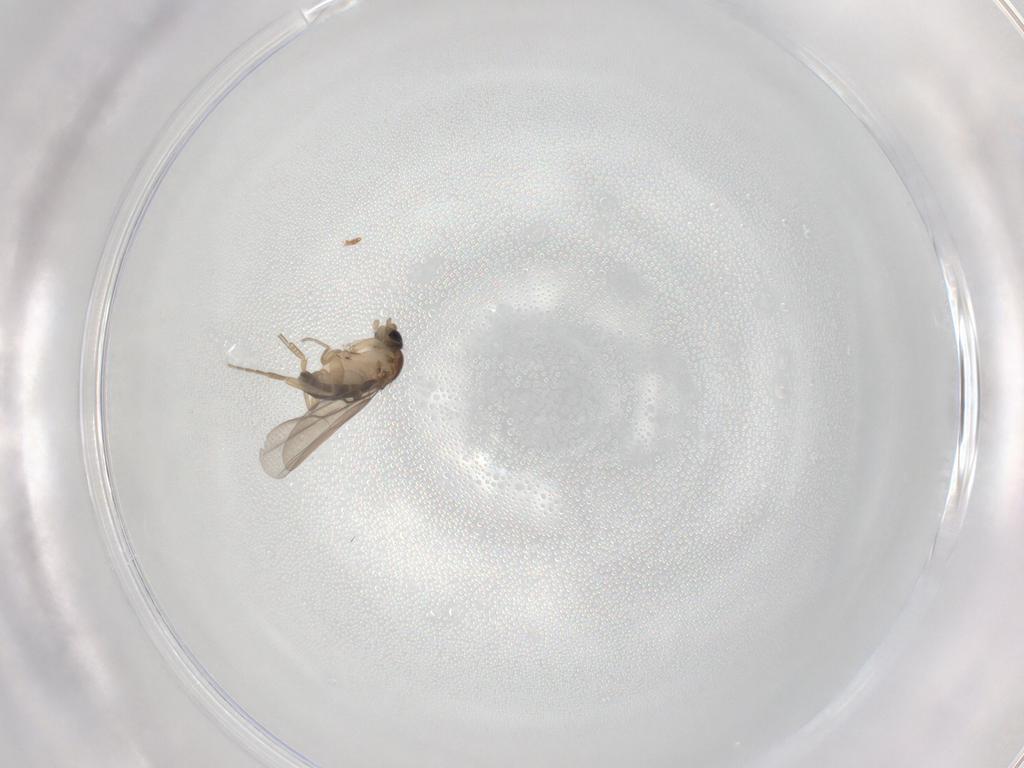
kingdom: Animalia
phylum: Arthropoda
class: Insecta
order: Diptera
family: Phoridae
